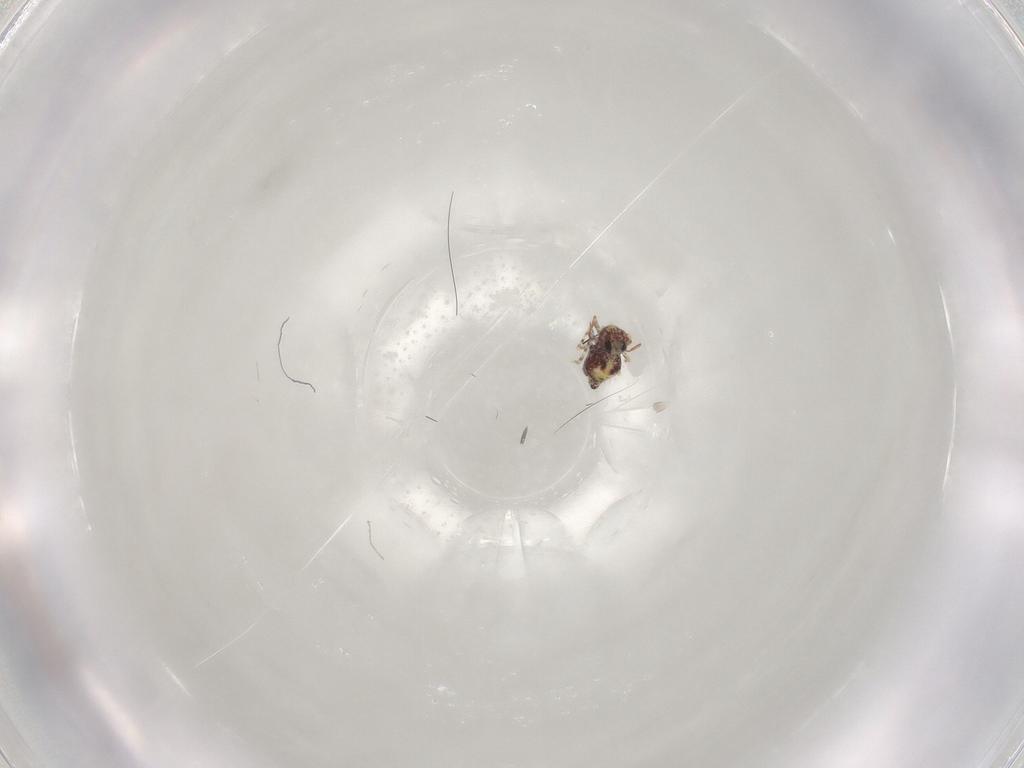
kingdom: Animalia
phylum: Arthropoda
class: Collembola
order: Symphypleona
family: Bourletiellidae
